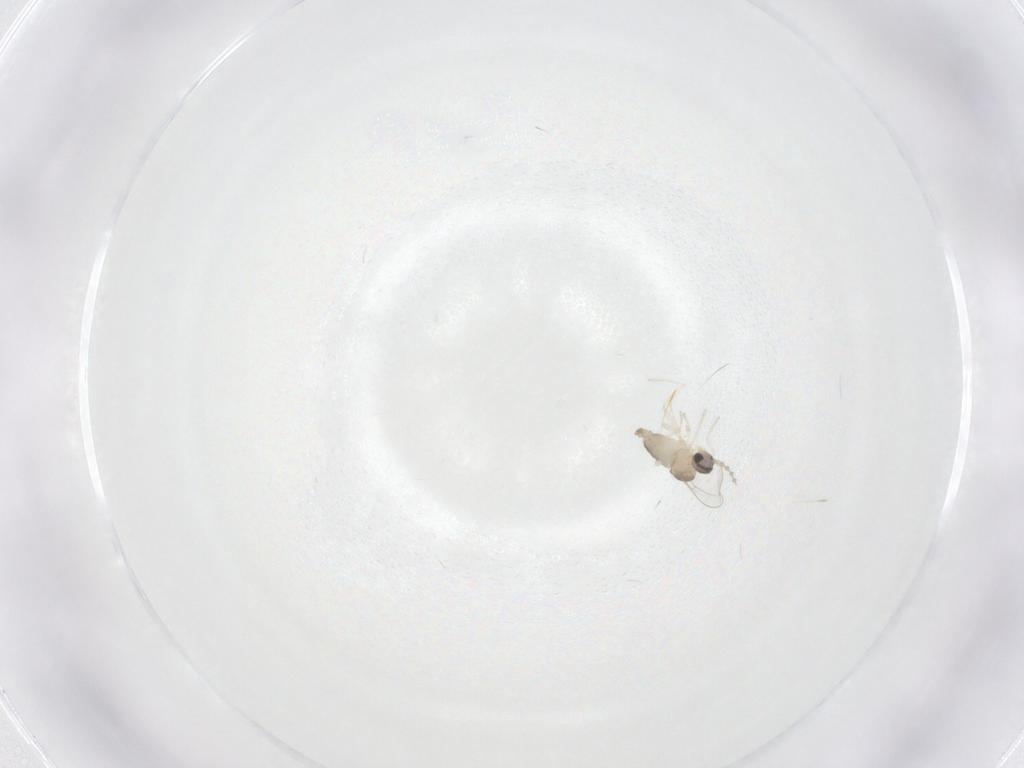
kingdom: Animalia
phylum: Arthropoda
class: Insecta
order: Diptera
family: Cecidomyiidae
